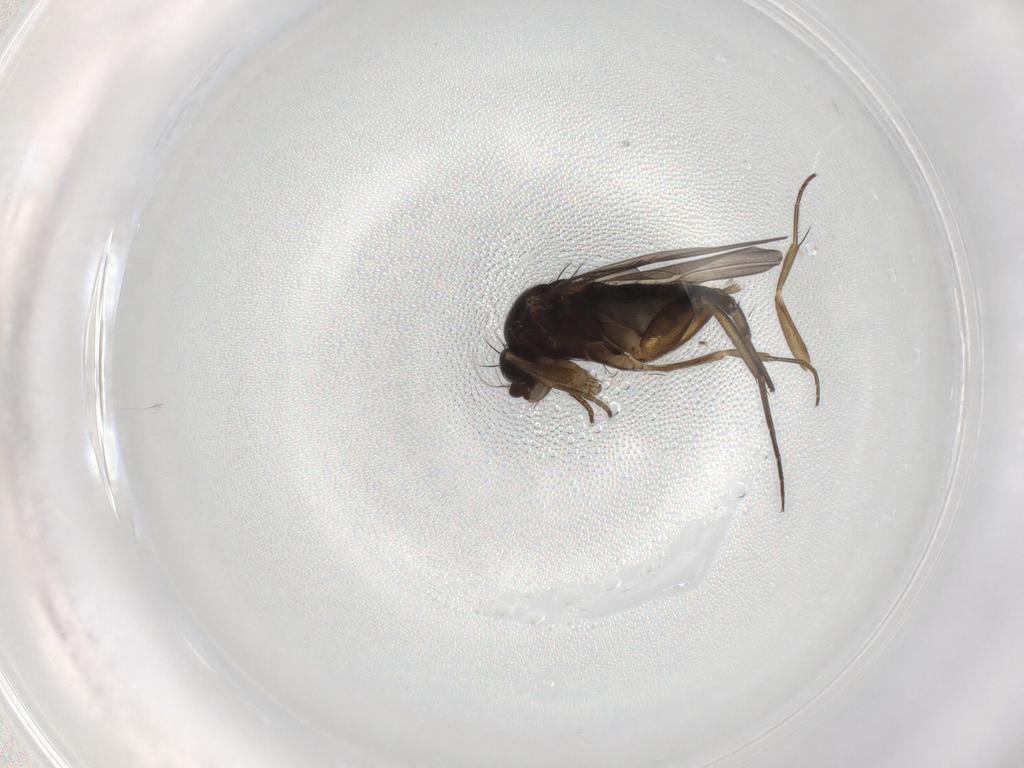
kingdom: Animalia
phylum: Arthropoda
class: Insecta
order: Diptera
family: Phoridae
